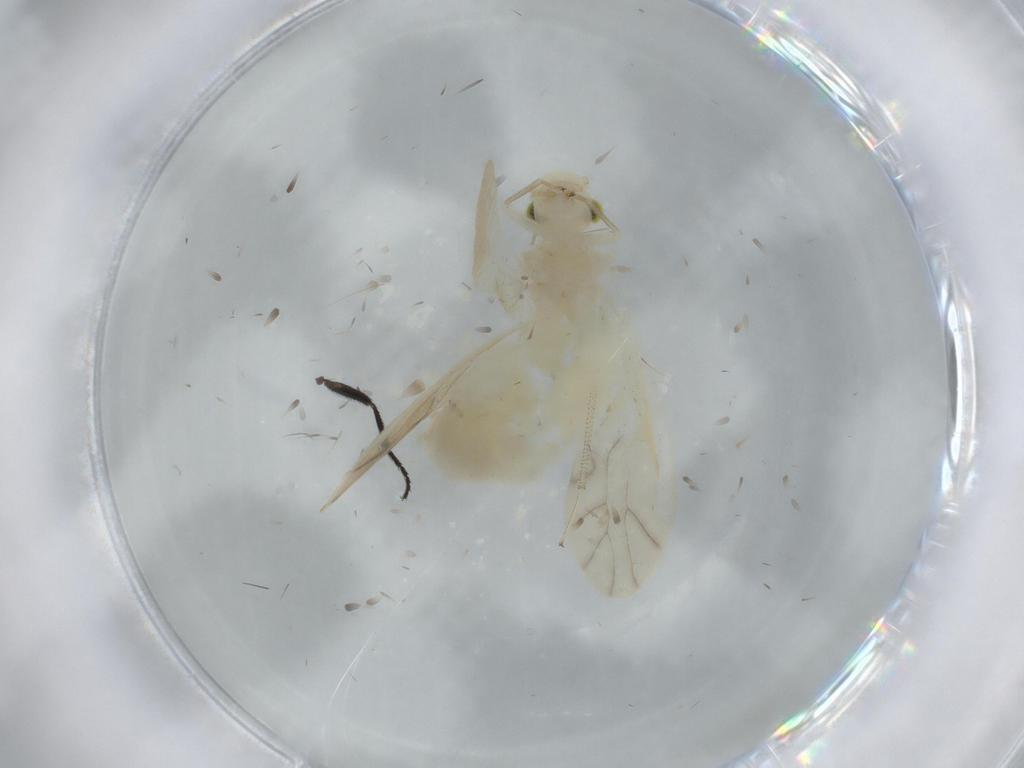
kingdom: Animalia
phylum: Arthropoda
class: Insecta
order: Psocodea
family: Caeciliusidae
